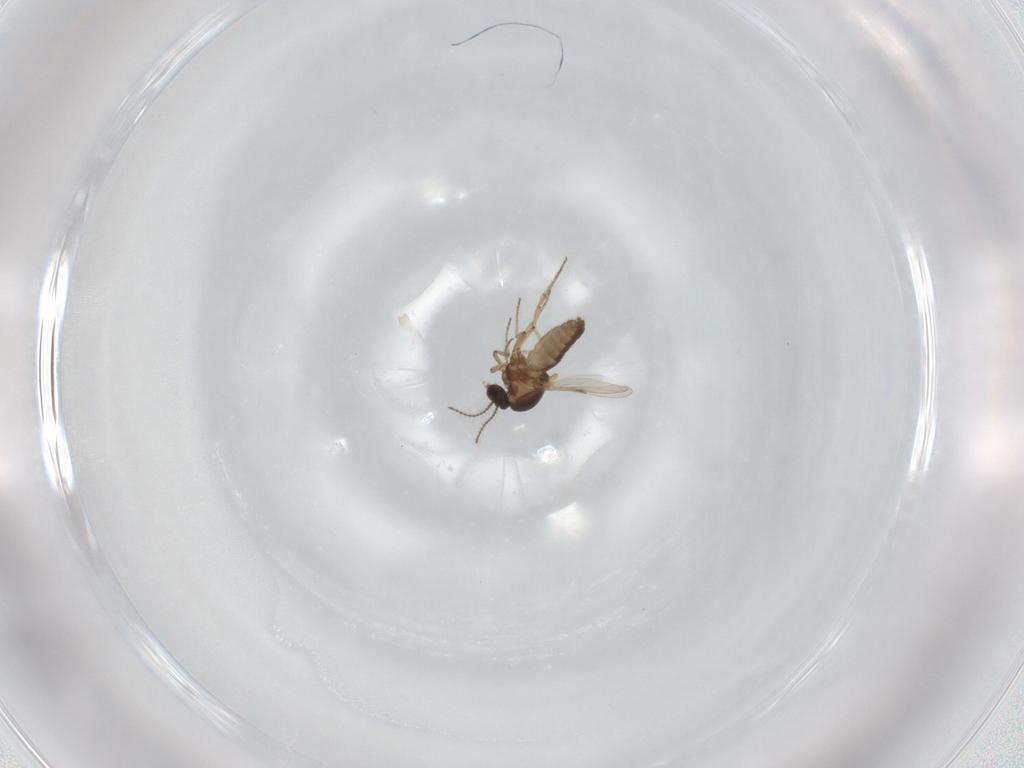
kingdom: Animalia
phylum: Arthropoda
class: Insecta
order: Diptera
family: Ceratopogonidae
